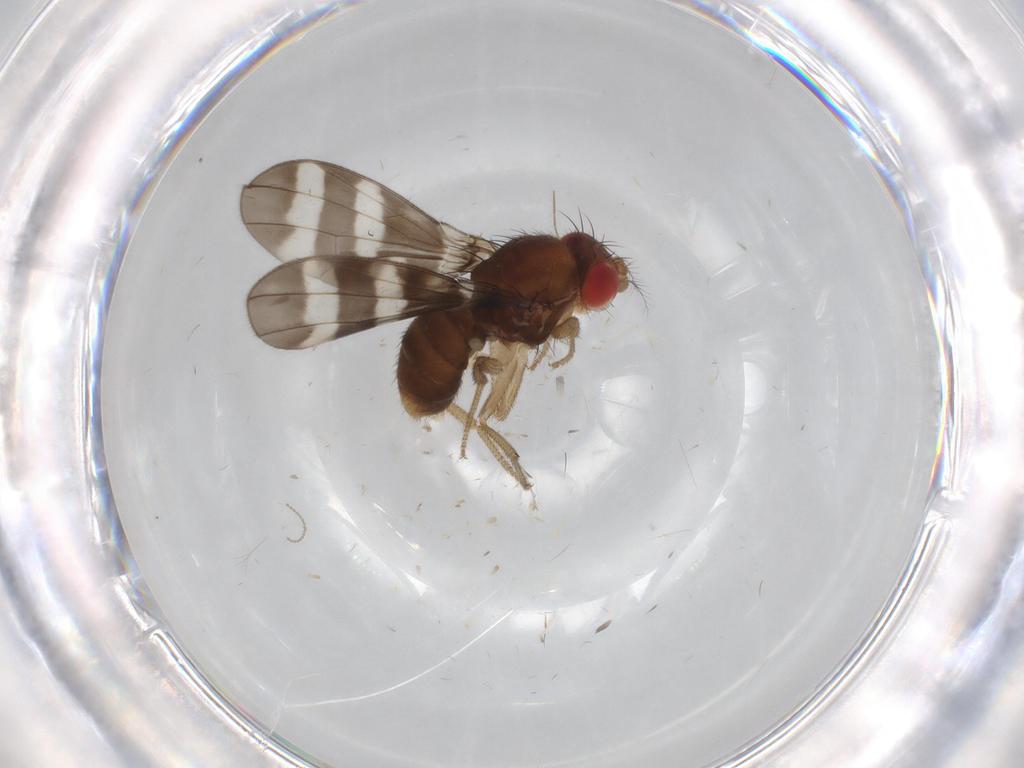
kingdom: Animalia
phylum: Arthropoda
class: Insecta
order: Diptera
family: Drosophilidae
